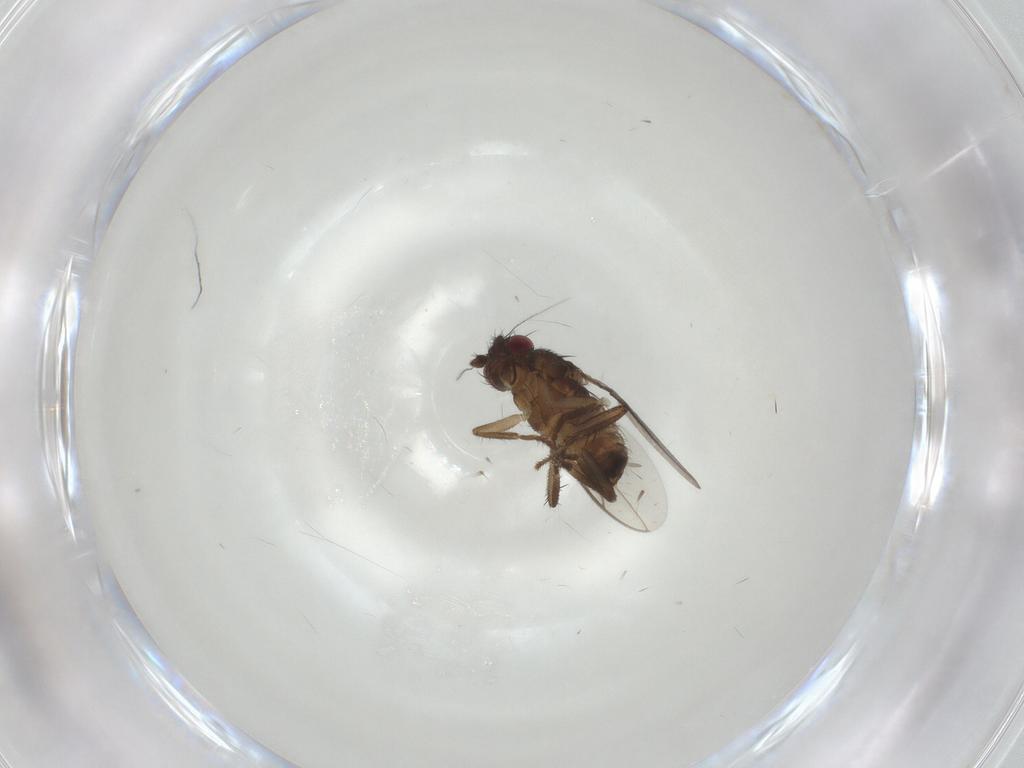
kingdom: Animalia
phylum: Arthropoda
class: Insecta
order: Diptera
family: Sphaeroceridae
